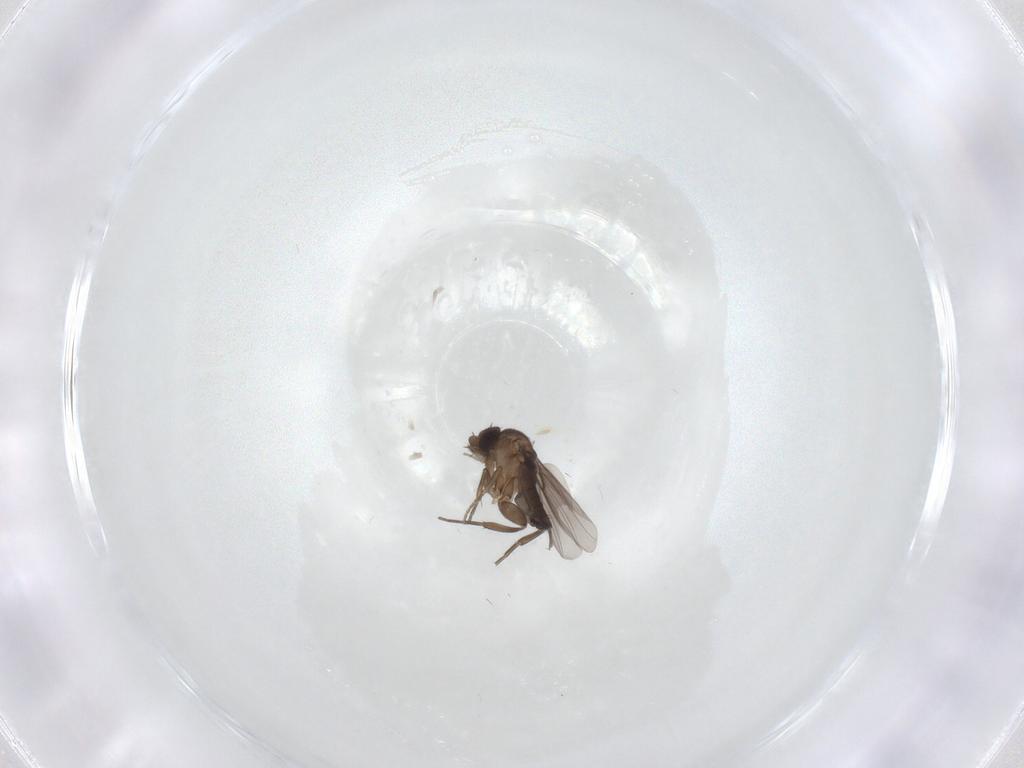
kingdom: Animalia
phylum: Arthropoda
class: Insecta
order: Diptera
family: Phoridae
